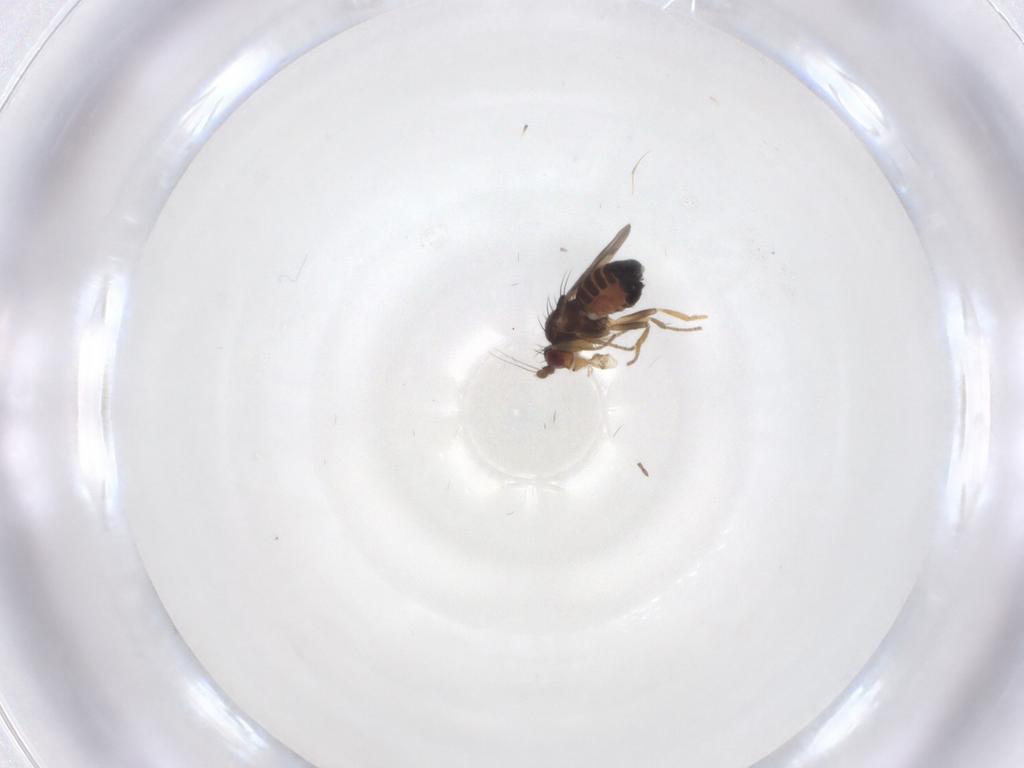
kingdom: Animalia
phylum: Arthropoda
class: Insecta
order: Diptera
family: Sphaeroceridae
